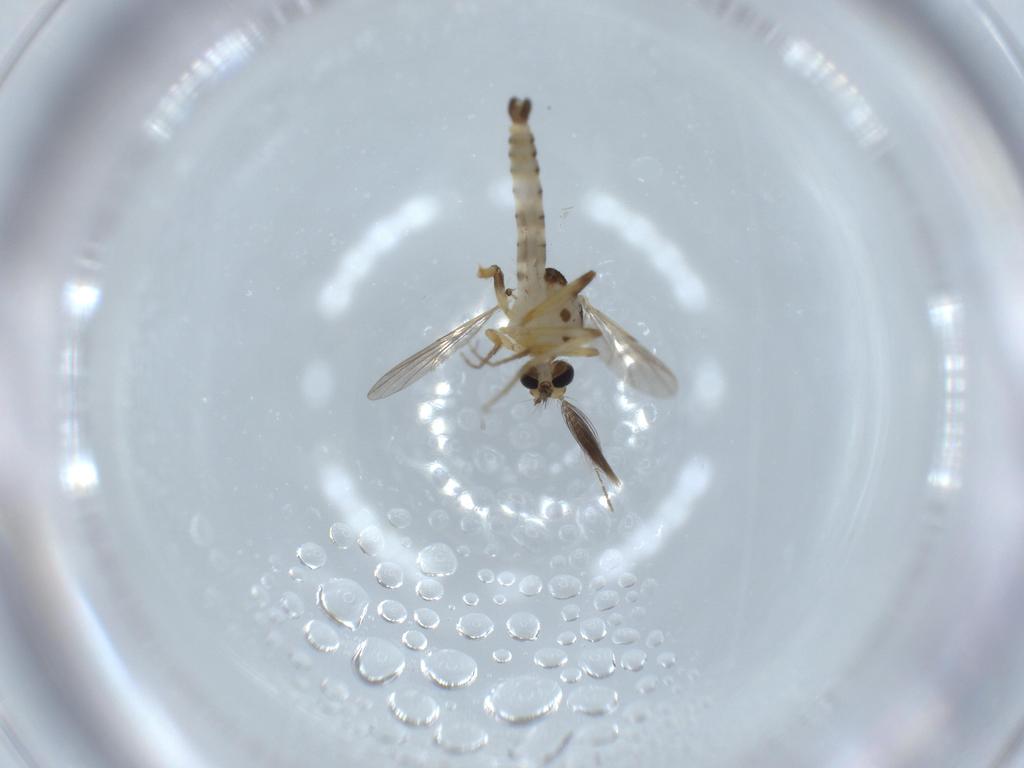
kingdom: Animalia
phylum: Arthropoda
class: Insecta
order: Diptera
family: Ceratopogonidae
